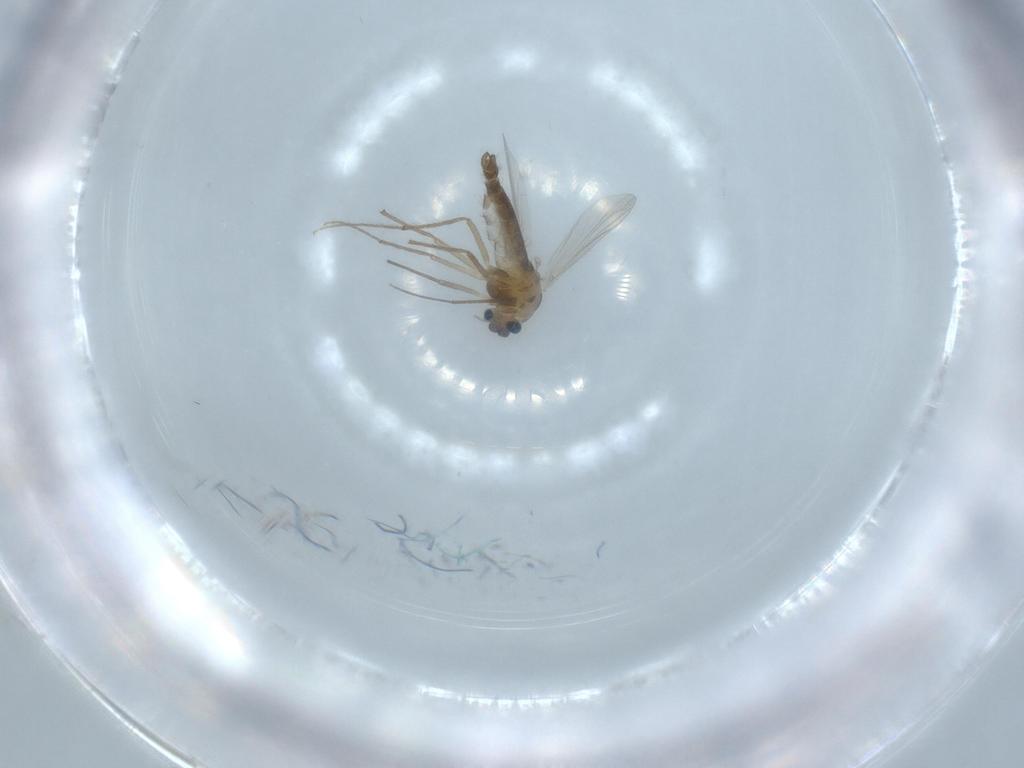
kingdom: Animalia
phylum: Arthropoda
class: Insecta
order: Diptera
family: Chironomidae
